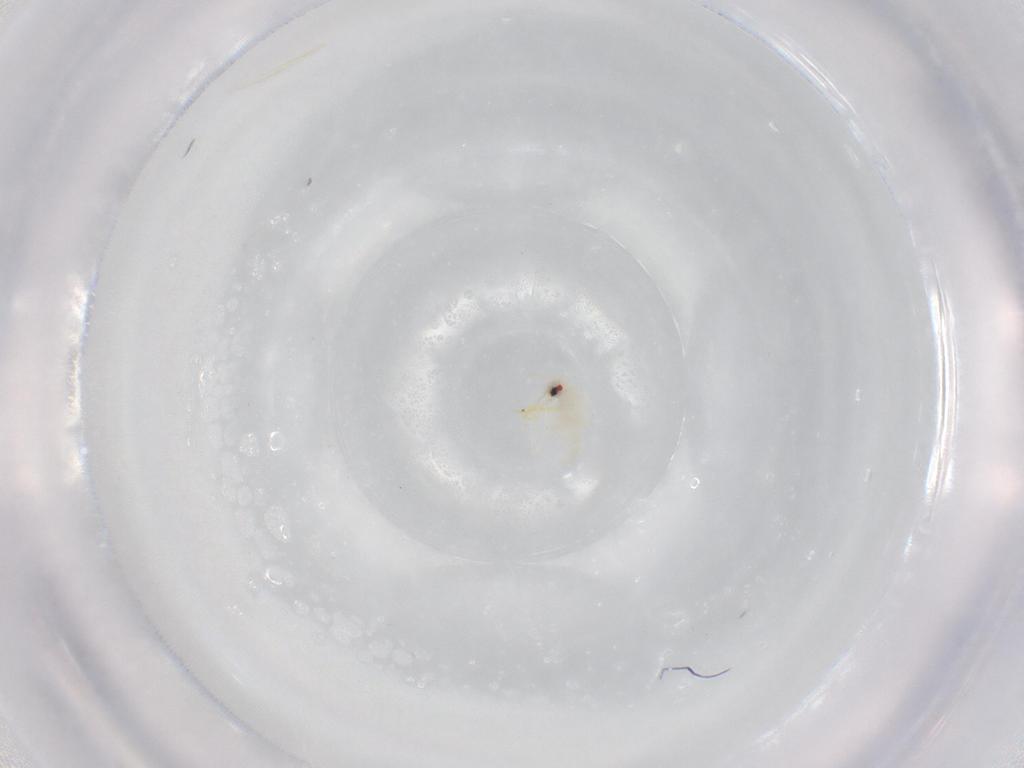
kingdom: Animalia
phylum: Arthropoda
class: Insecta
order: Hemiptera
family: Aleyrodidae
